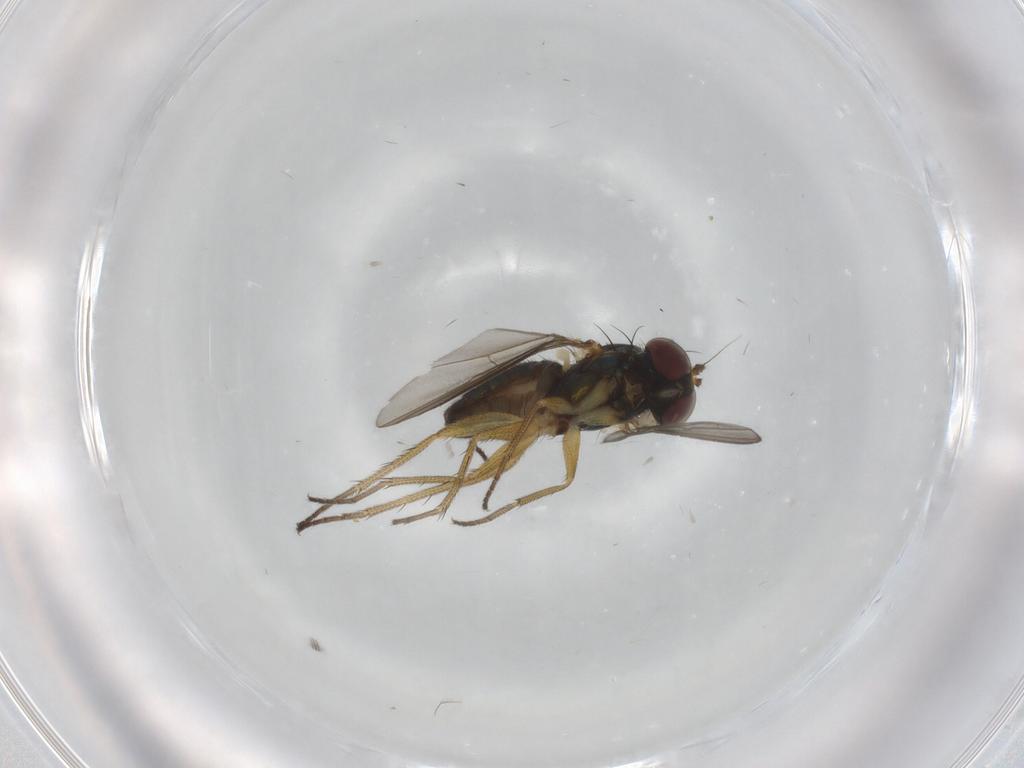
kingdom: Animalia
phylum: Arthropoda
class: Insecta
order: Diptera
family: Dolichopodidae
